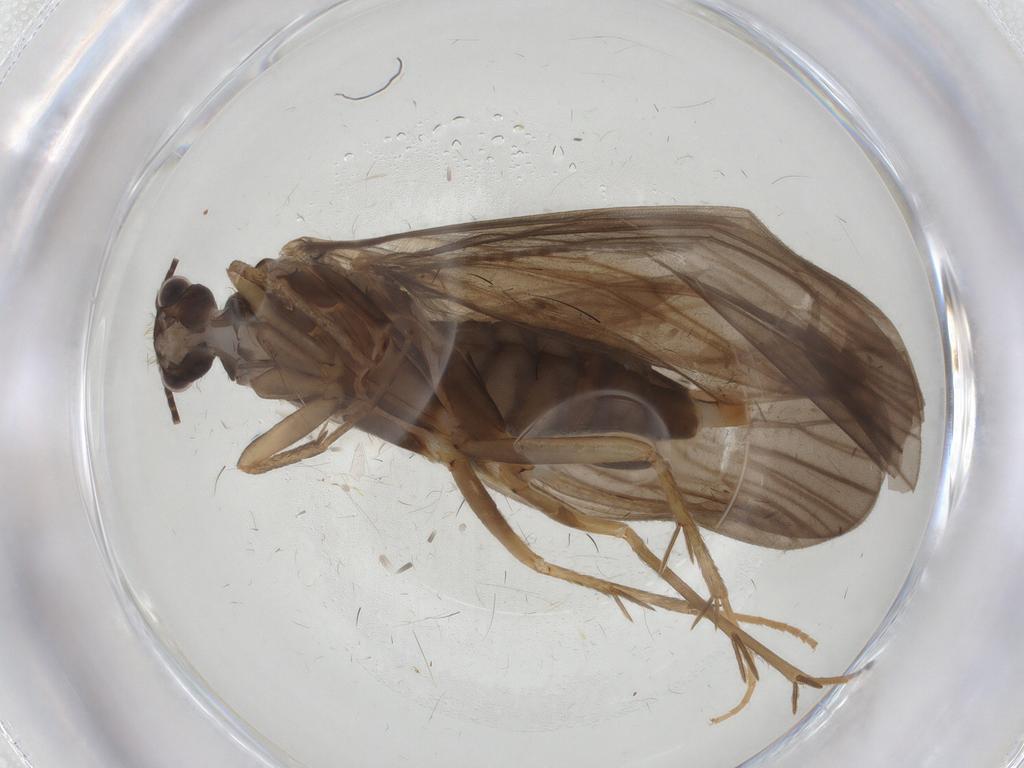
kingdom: Animalia
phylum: Arthropoda
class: Insecta
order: Trichoptera
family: Philopotamidae
